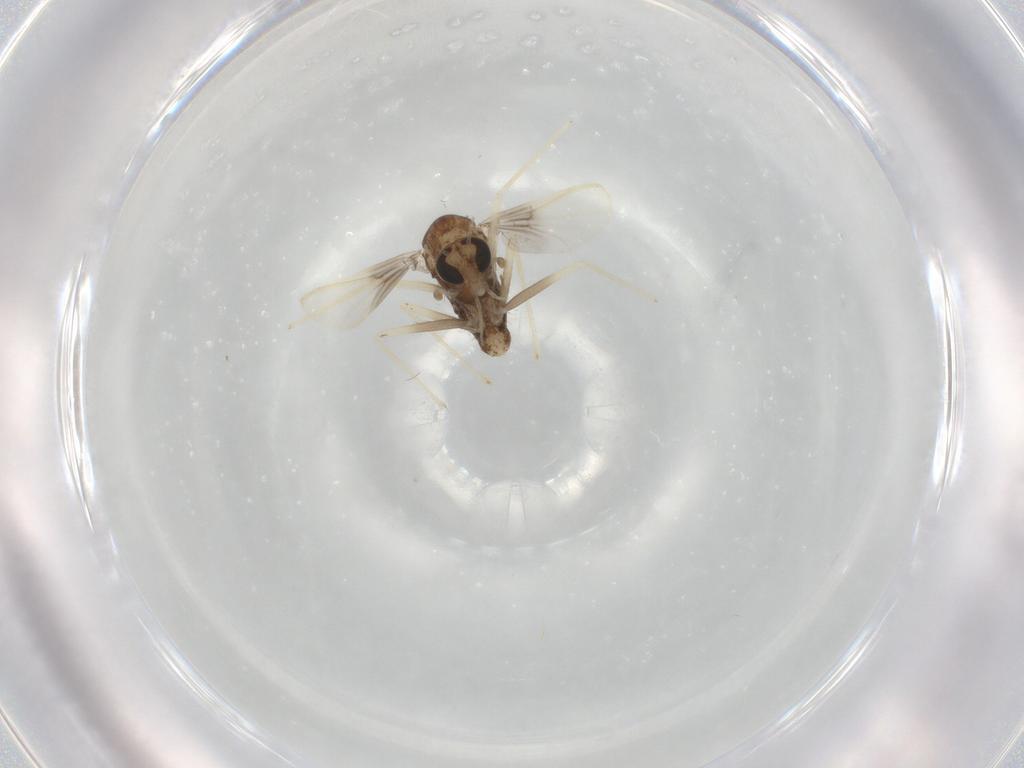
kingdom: Animalia
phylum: Arthropoda
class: Insecta
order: Diptera
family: Chironomidae
